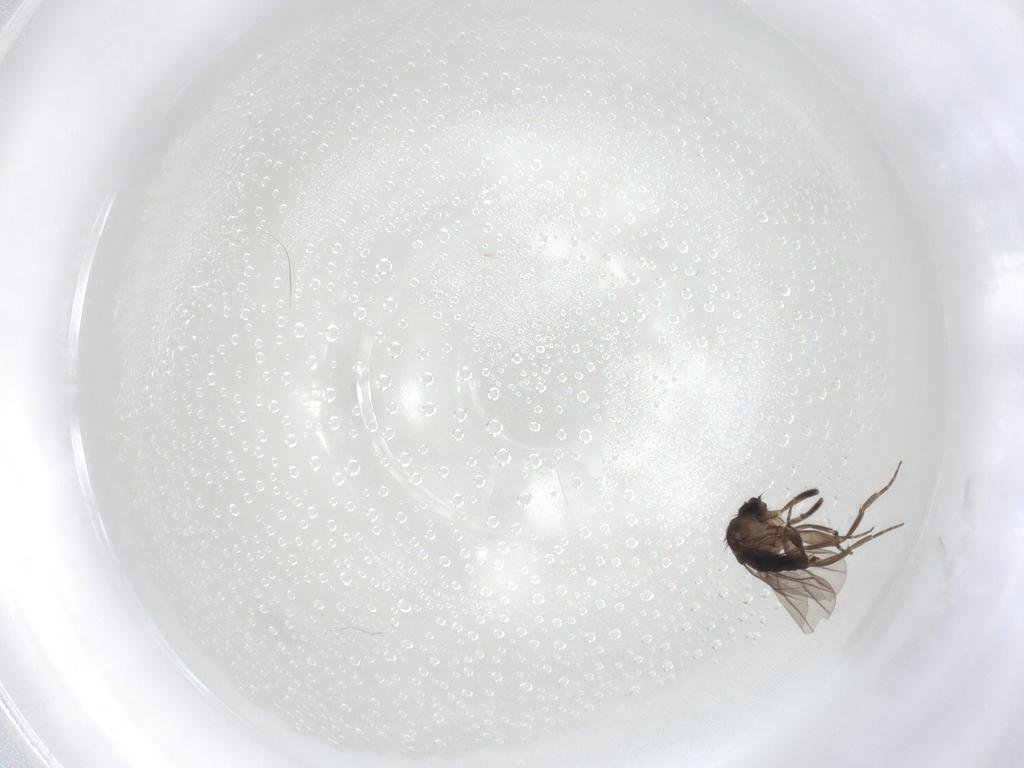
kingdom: Animalia
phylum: Arthropoda
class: Insecta
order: Diptera
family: Phoridae
